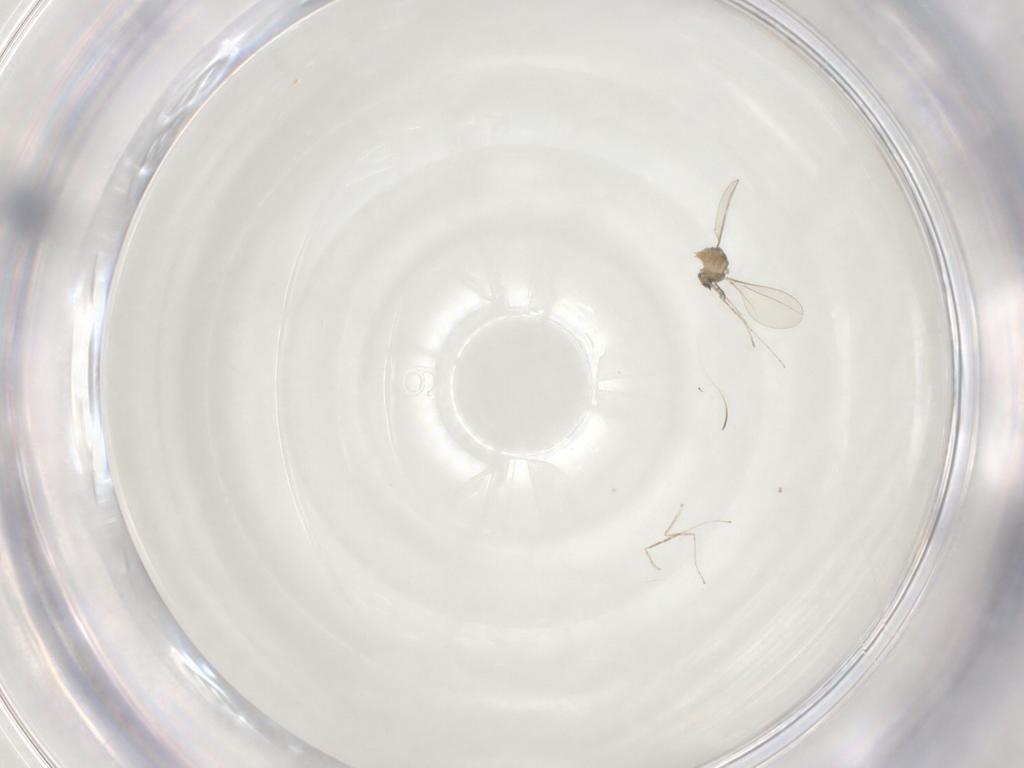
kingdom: Animalia
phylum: Arthropoda
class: Insecta
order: Diptera
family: Cecidomyiidae
